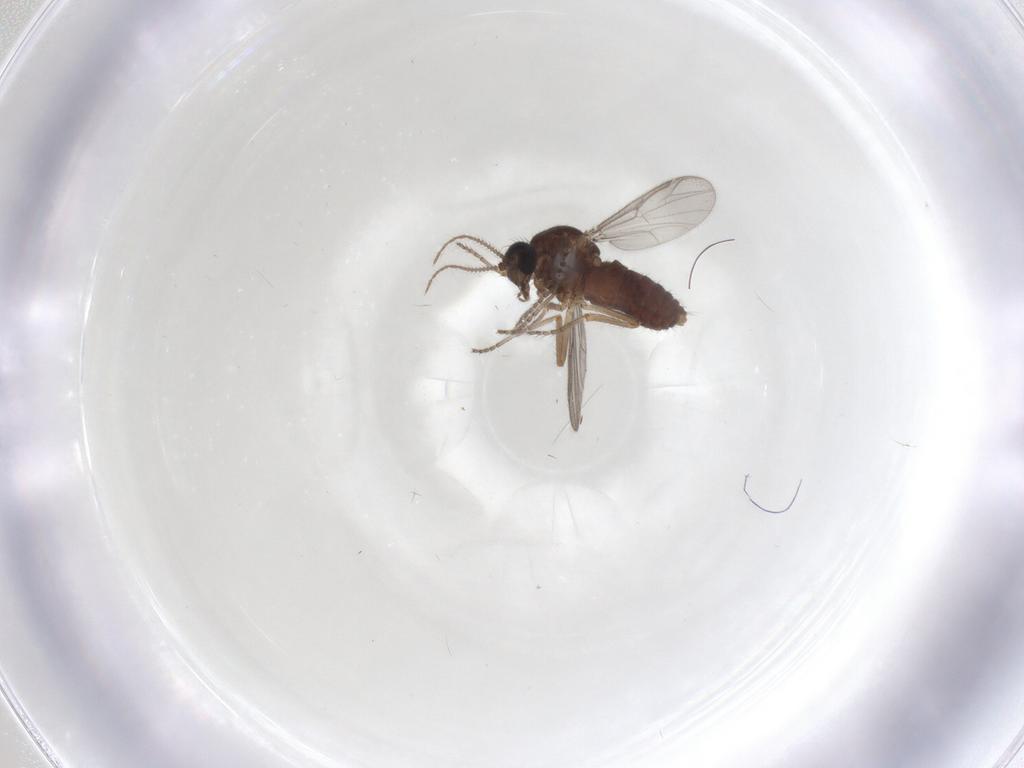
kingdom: Animalia
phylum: Arthropoda
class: Insecta
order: Diptera
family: Ceratopogonidae
